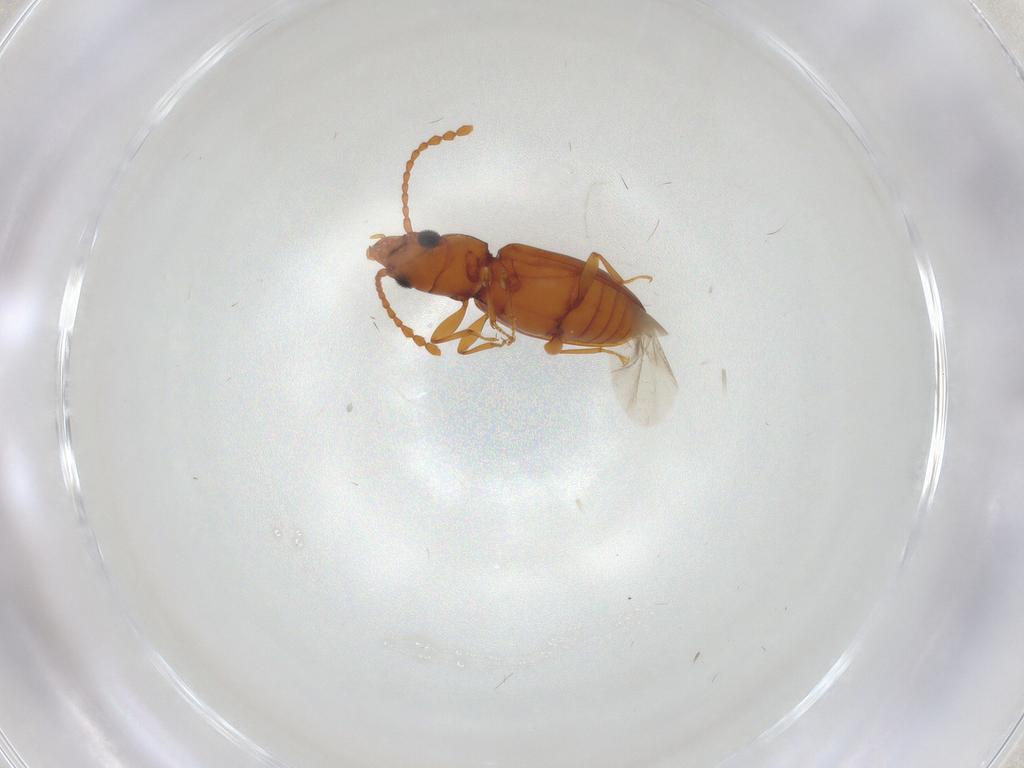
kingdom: Animalia
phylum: Arthropoda
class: Insecta
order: Coleoptera
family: Laemophloeidae
